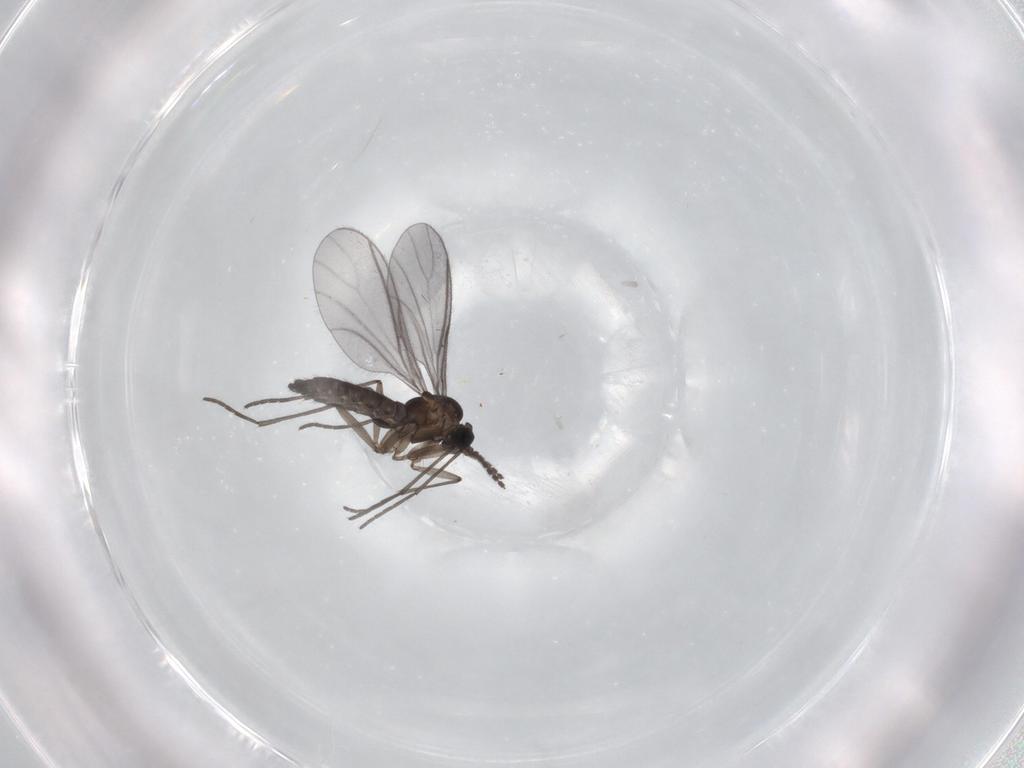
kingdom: Animalia
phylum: Arthropoda
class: Insecta
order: Diptera
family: Sciaridae
